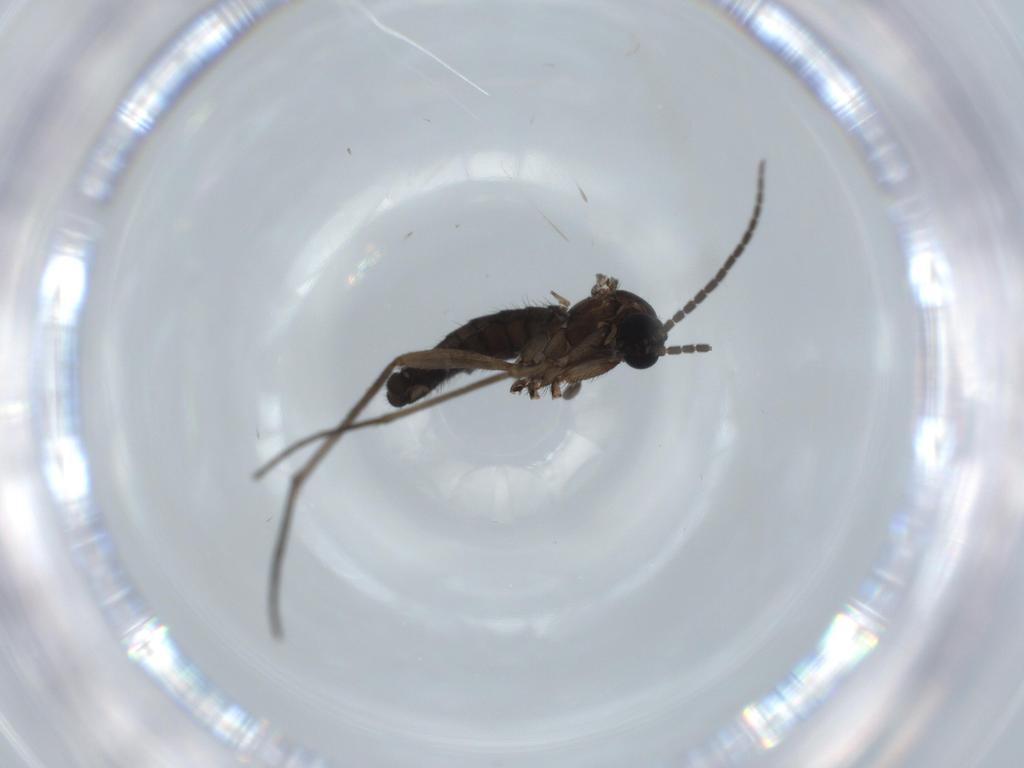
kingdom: Animalia
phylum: Arthropoda
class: Insecta
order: Diptera
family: Sciaridae
